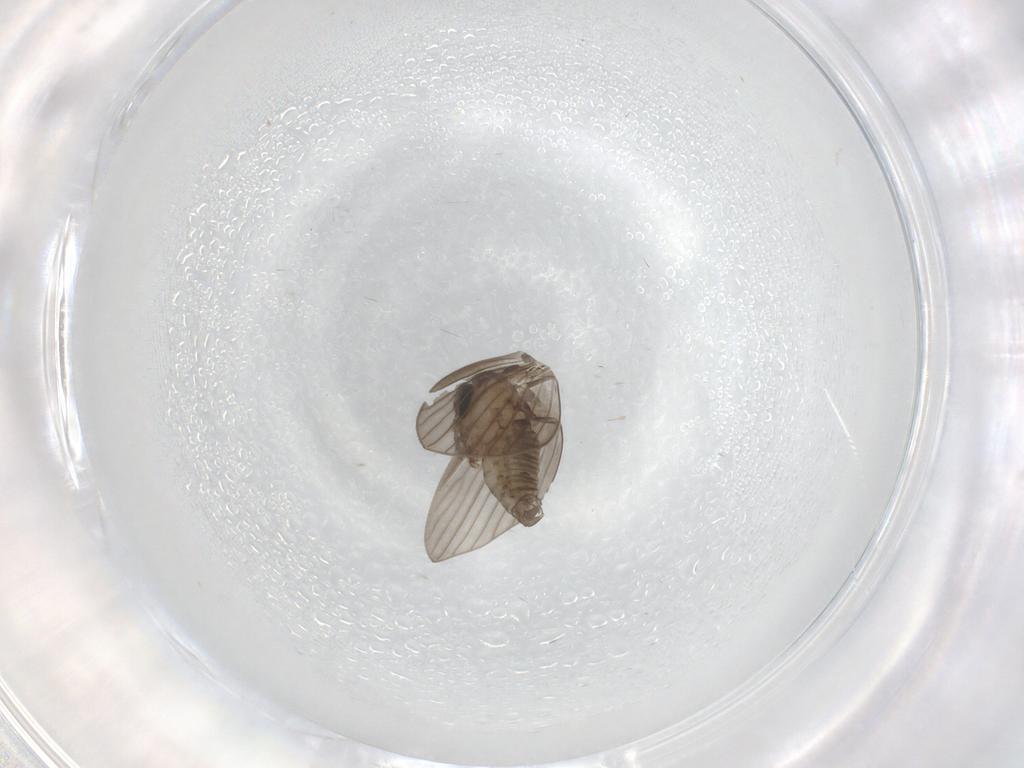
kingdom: Animalia
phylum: Arthropoda
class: Insecta
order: Diptera
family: Psychodidae
